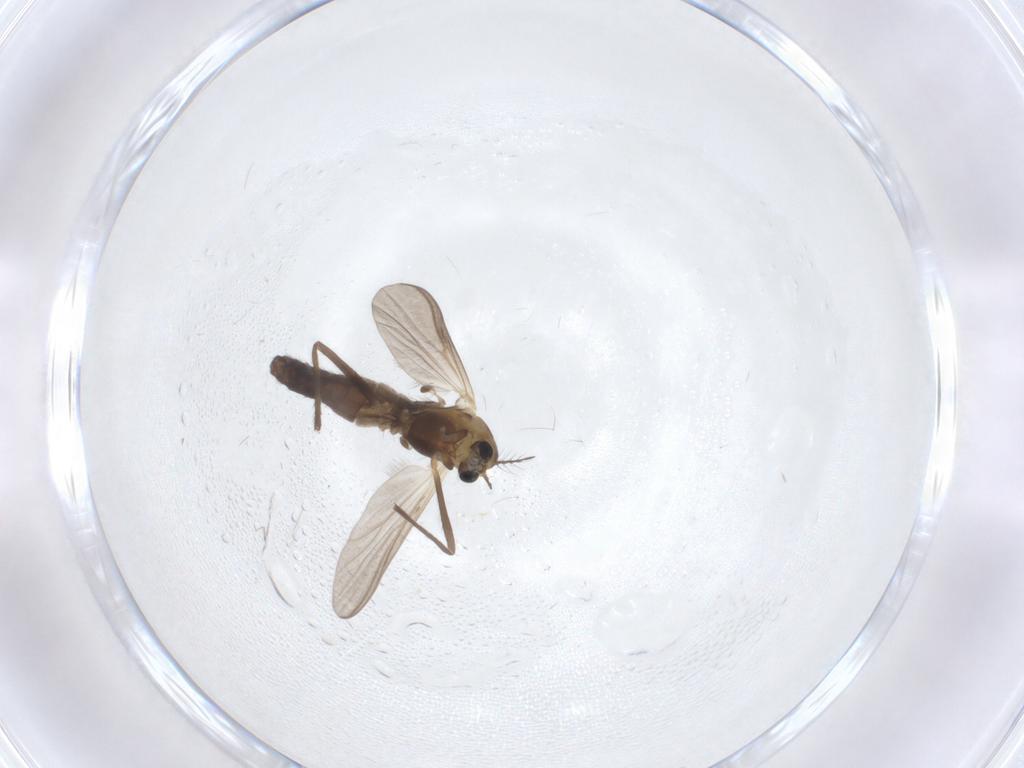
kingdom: Animalia
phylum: Arthropoda
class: Insecta
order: Diptera
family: Chironomidae
